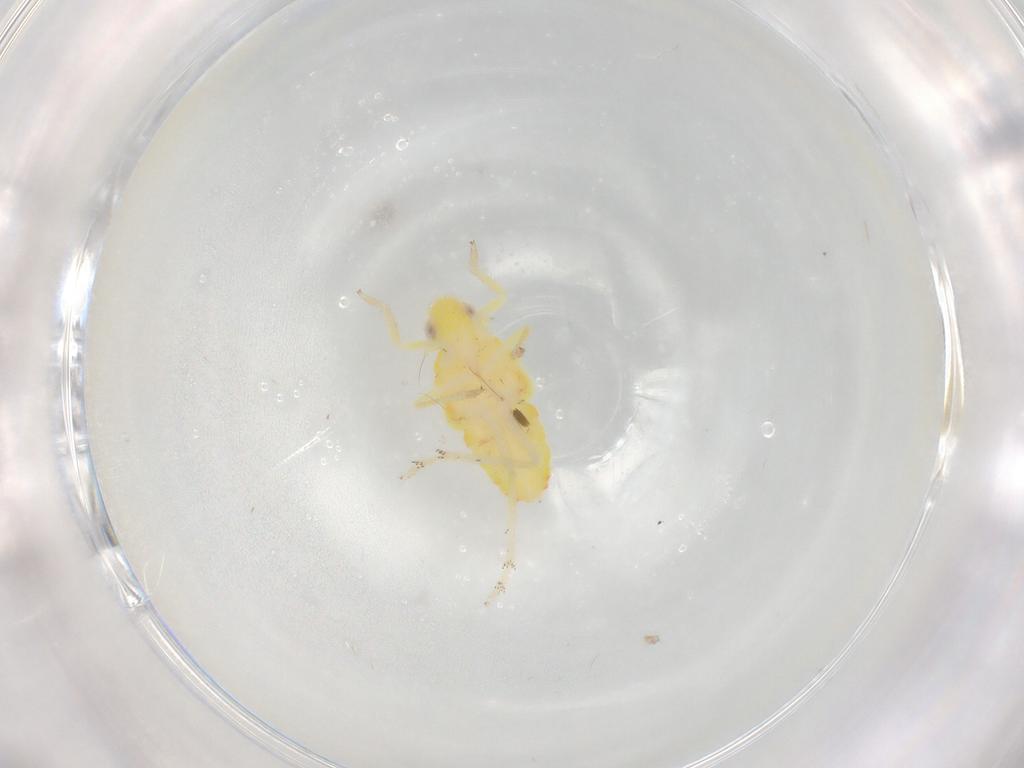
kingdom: Animalia
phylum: Arthropoda
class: Insecta
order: Hemiptera
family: Tropiduchidae
